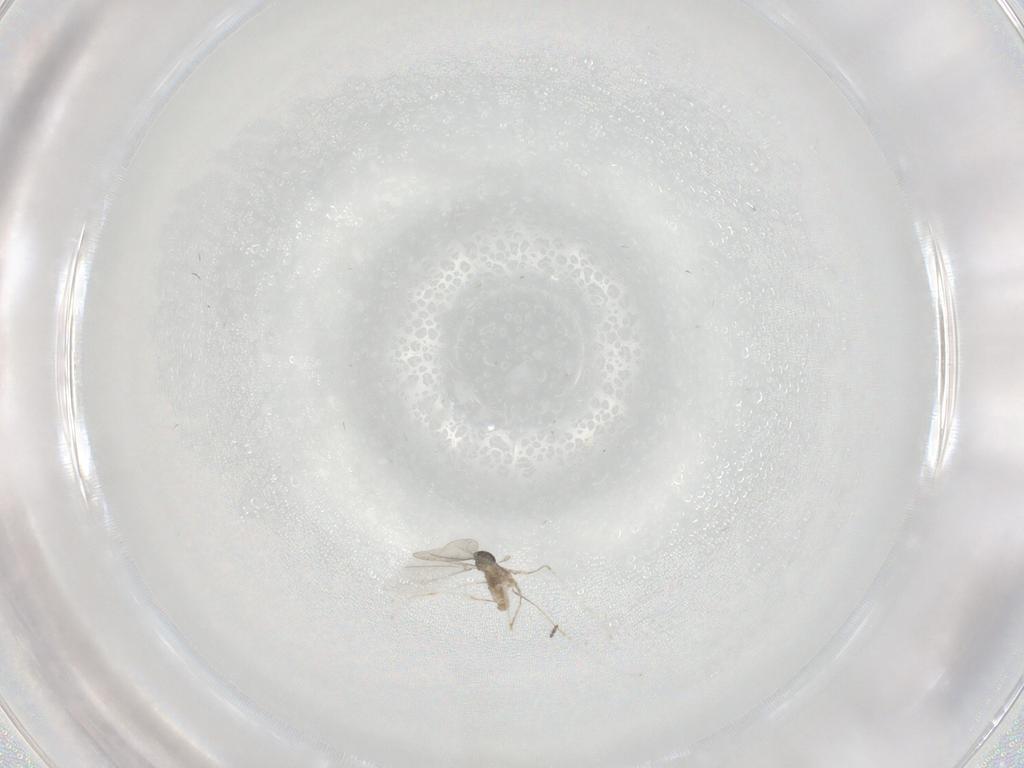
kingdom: Animalia
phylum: Arthropoda
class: Insecta
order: Diptera
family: Cecidomyiidae
